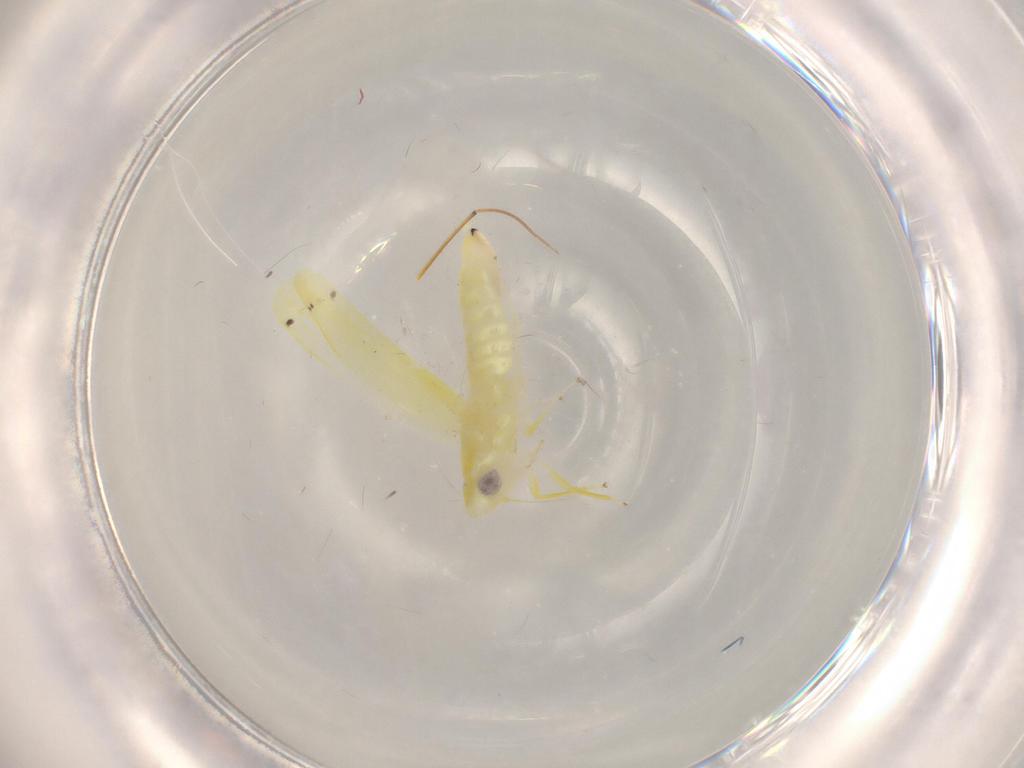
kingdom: Animalia
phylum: Arthropoda
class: Insecta
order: Hemiptera
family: Cicadellidae
